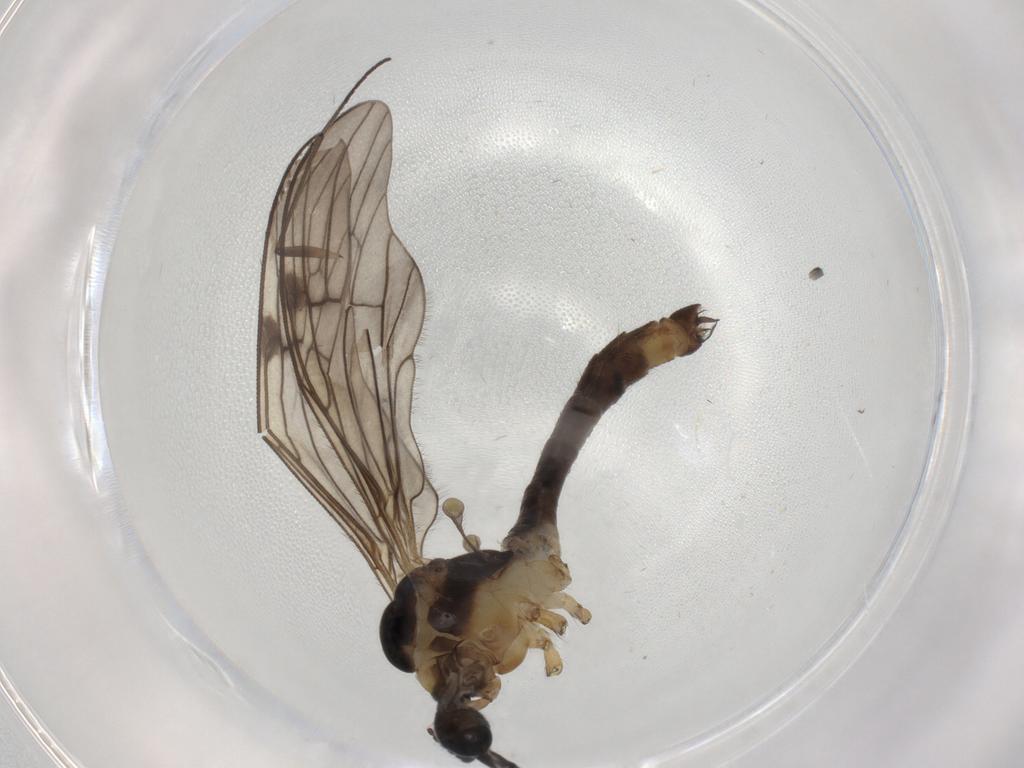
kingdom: Animalia
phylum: Arthropoda
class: Insecta
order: Diptera
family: Limoniidae
